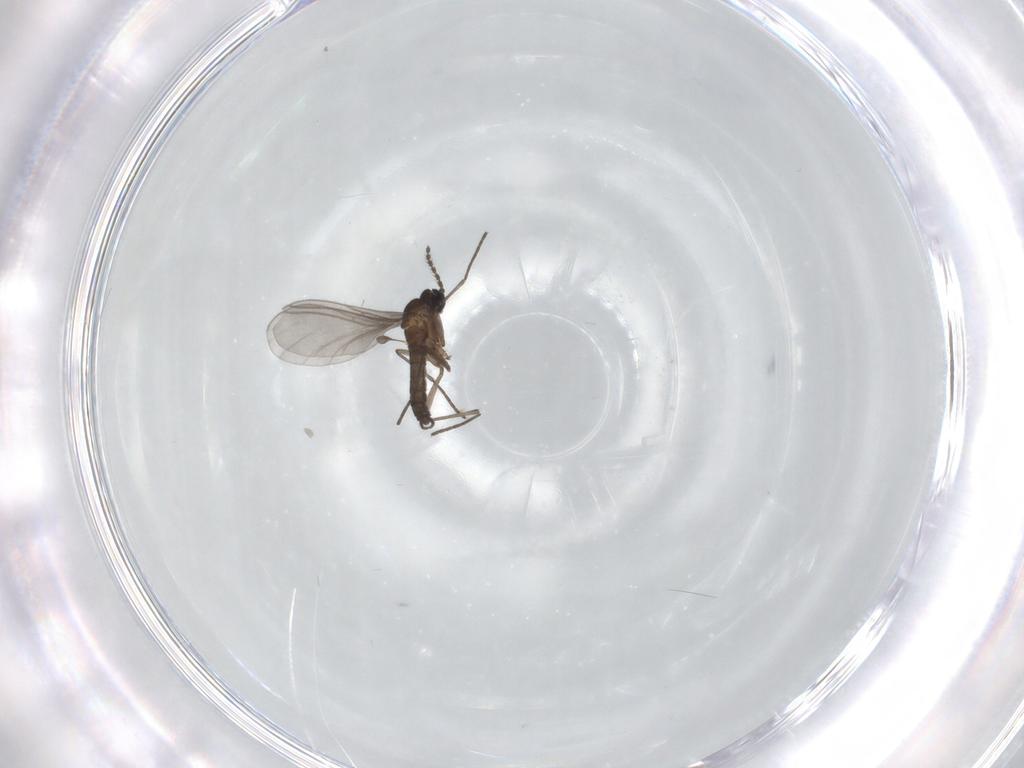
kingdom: Animalia
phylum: Arthropoda
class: Insecta
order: Diptera
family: Sciaridae
